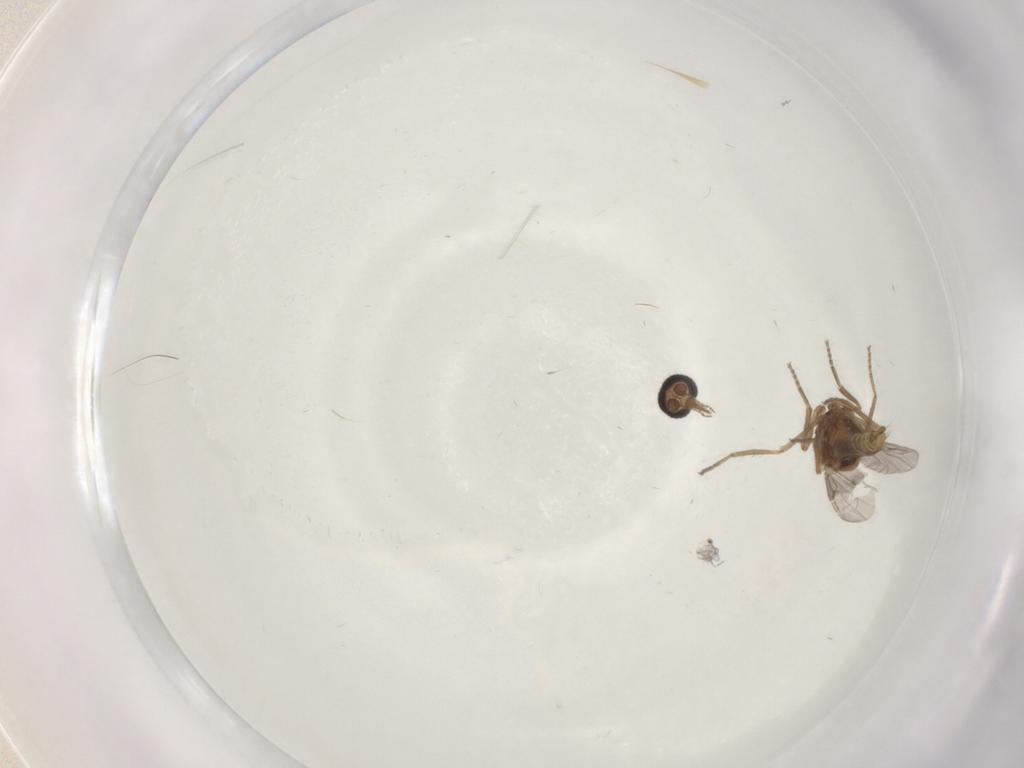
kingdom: Animalia
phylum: Arthropoda
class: Insecta
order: Diptera
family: Ceratopogonidae
